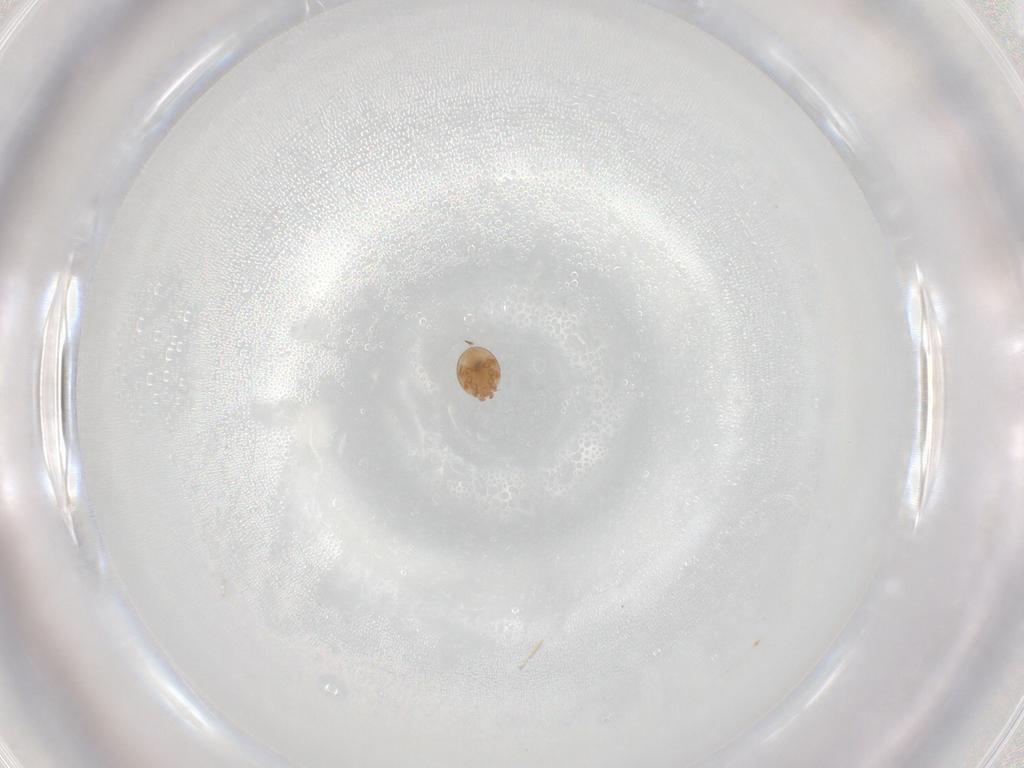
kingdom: Animalia
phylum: Arthropoda
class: Arachnida
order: Mesostigmata
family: Trematuridae
